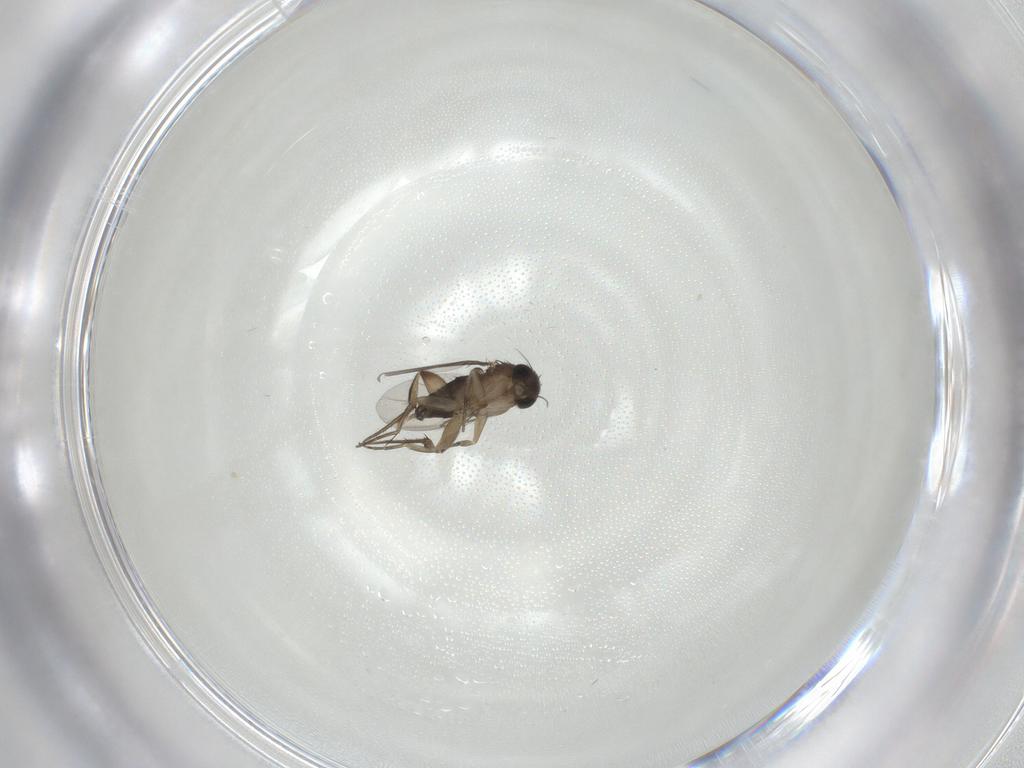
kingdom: Animalia
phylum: Arthropoda
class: Insecta
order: Diptera
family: Phoridae
